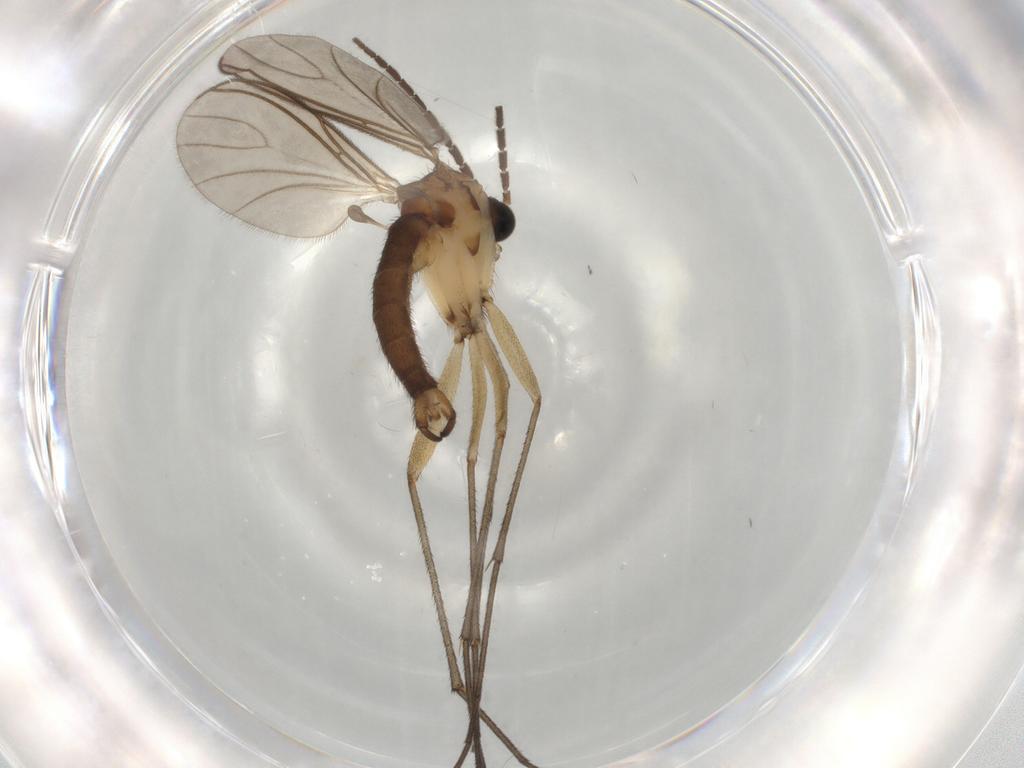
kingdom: Animalia
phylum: Arthropoda
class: Insecta
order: Diptera
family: Sciaridae
